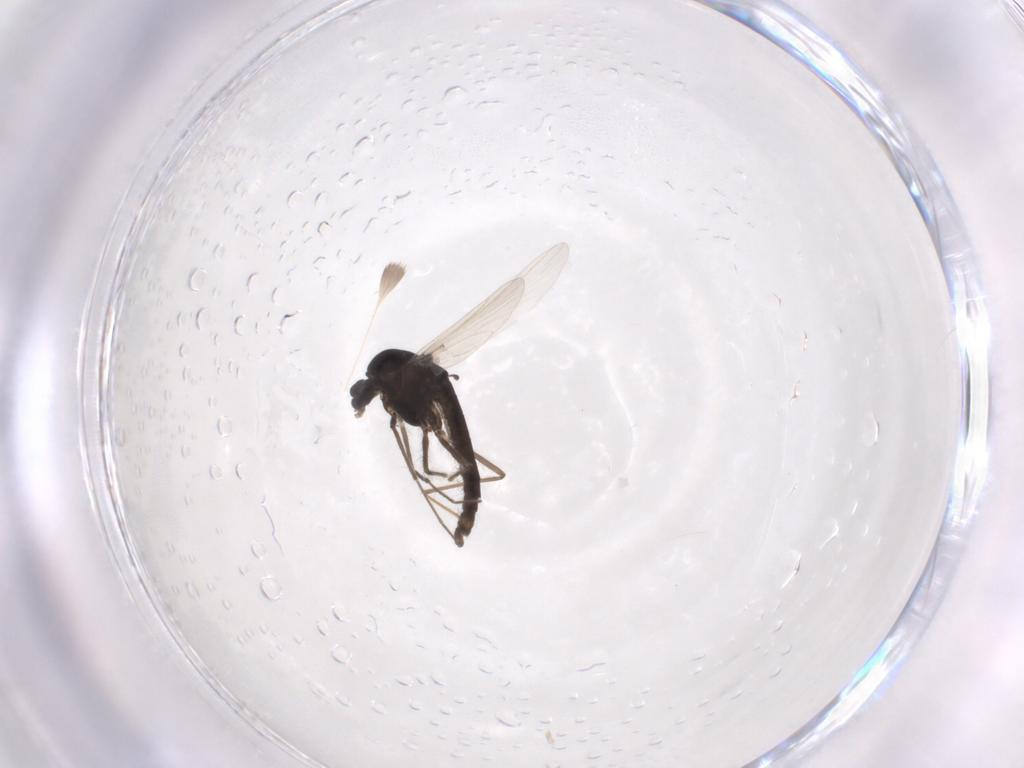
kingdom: Animalia
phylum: Arthropoda
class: Insecta
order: Diptera
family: Chironomidae
